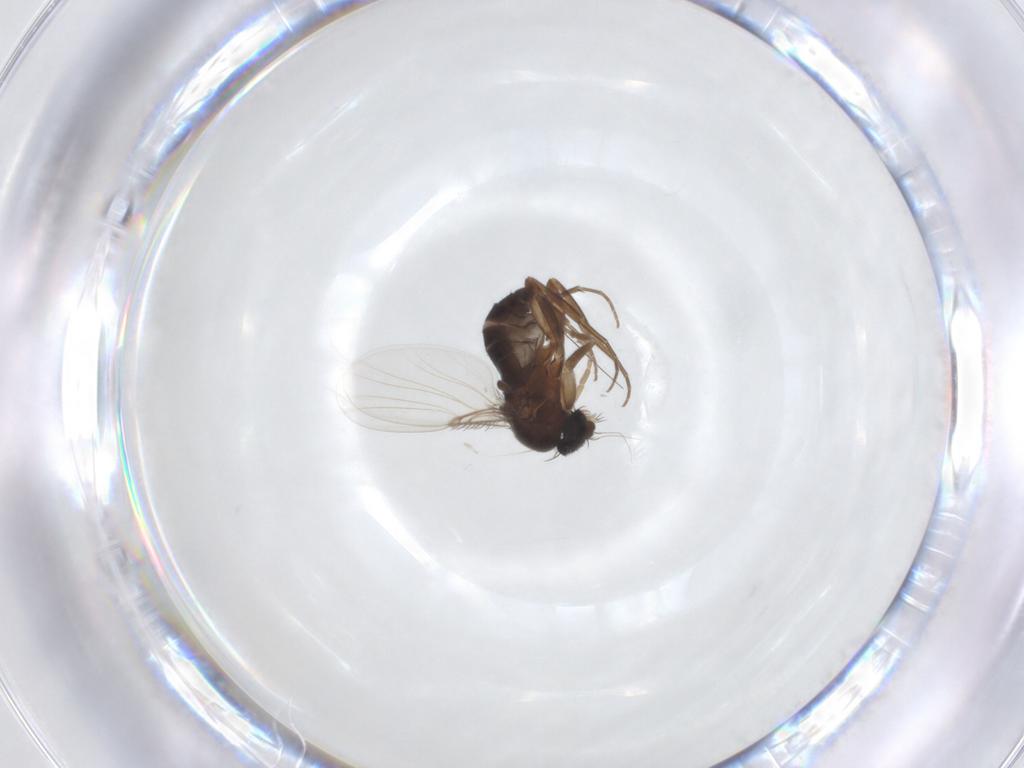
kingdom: Animalia
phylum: Arthropoda
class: Insecta
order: Diptera
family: Phoridae
